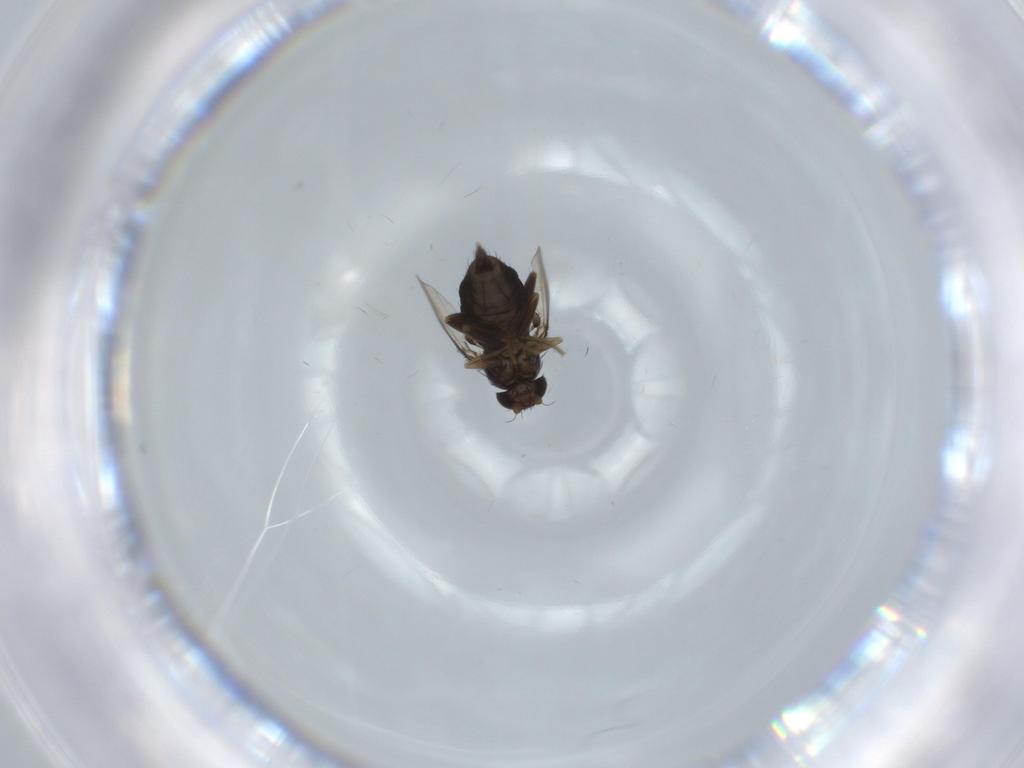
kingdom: Animalia
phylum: Arthropoda
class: Insecta
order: Diptera
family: Phoridae
